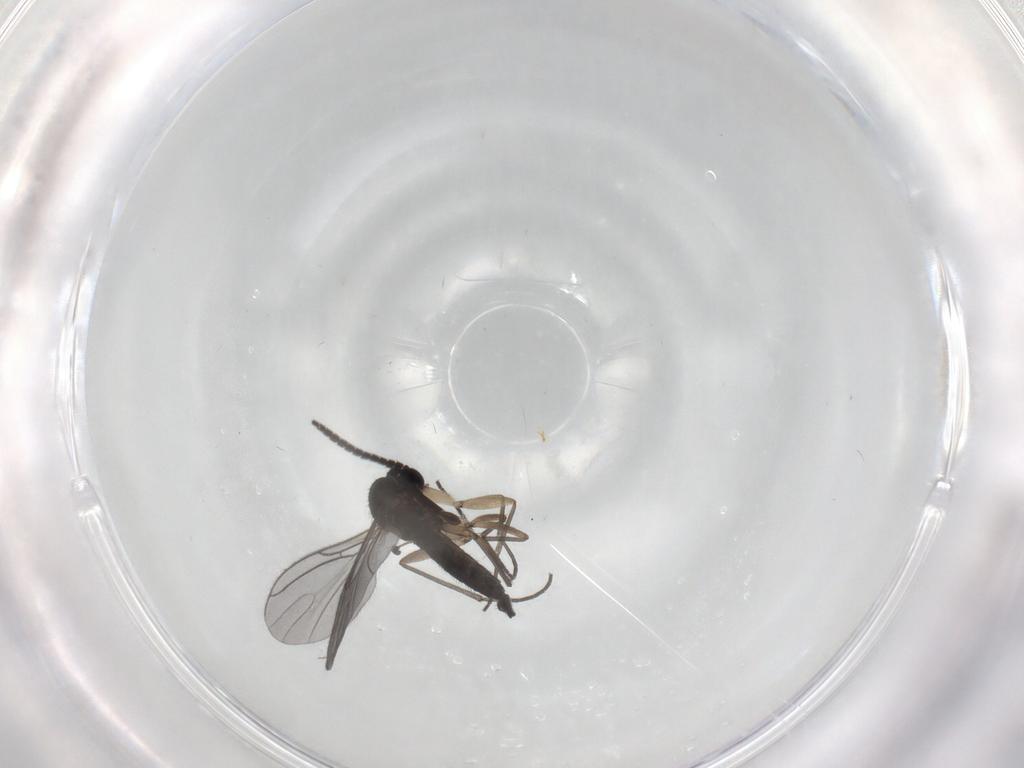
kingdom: Animalia
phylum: Arthropoda
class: Insecta
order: Diptera
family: Sciaridae
